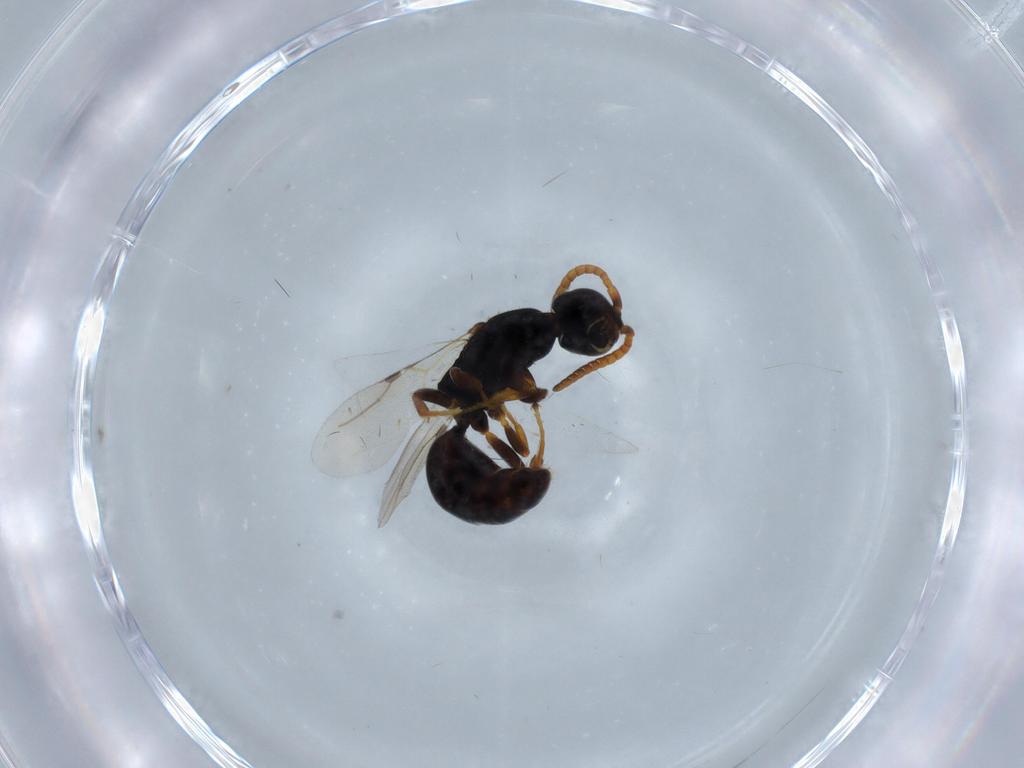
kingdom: Animalia
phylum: Arthropoda
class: Insecta
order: Hymenoptera
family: Bethylidae
